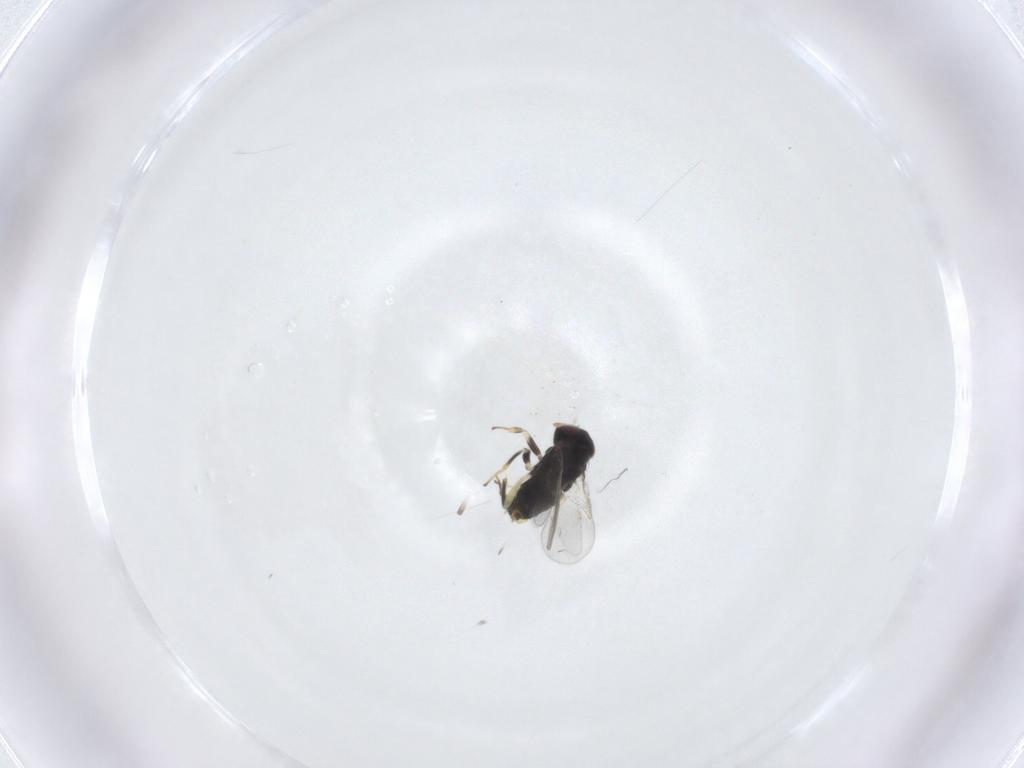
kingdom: Animalia
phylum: Arthropoda
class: Insecta
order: Hymenoptera
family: Aphelinidae
